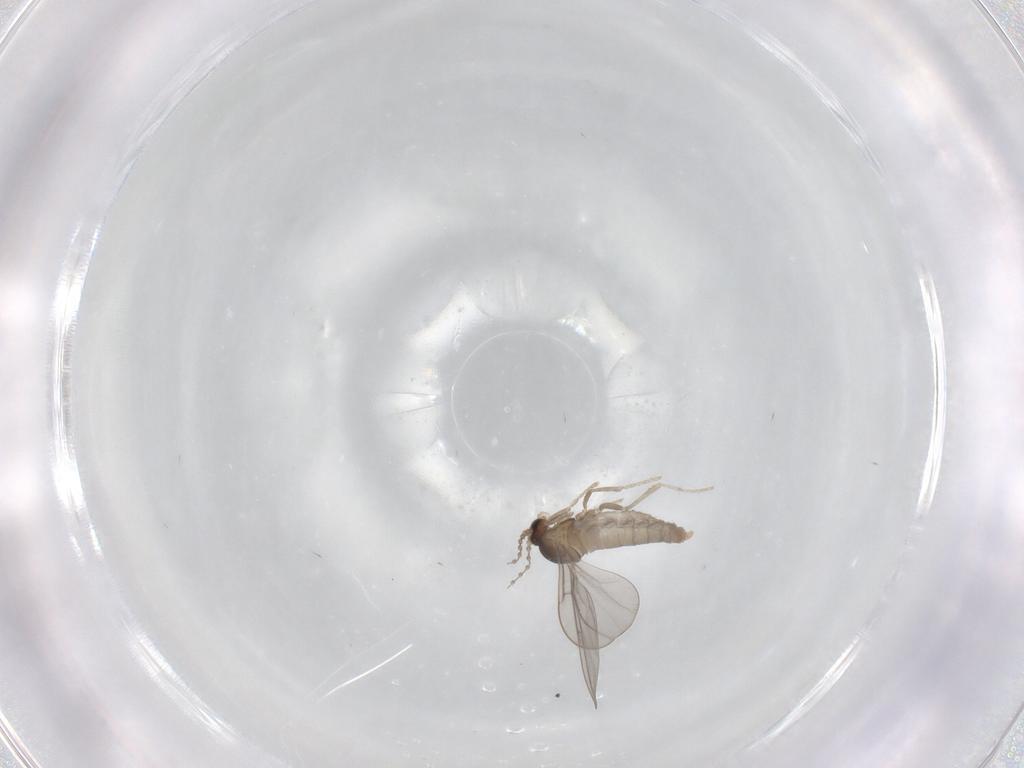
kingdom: Animalia
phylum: Arthropoda
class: Insecta
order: Diptera
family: Cecidomyiidae
